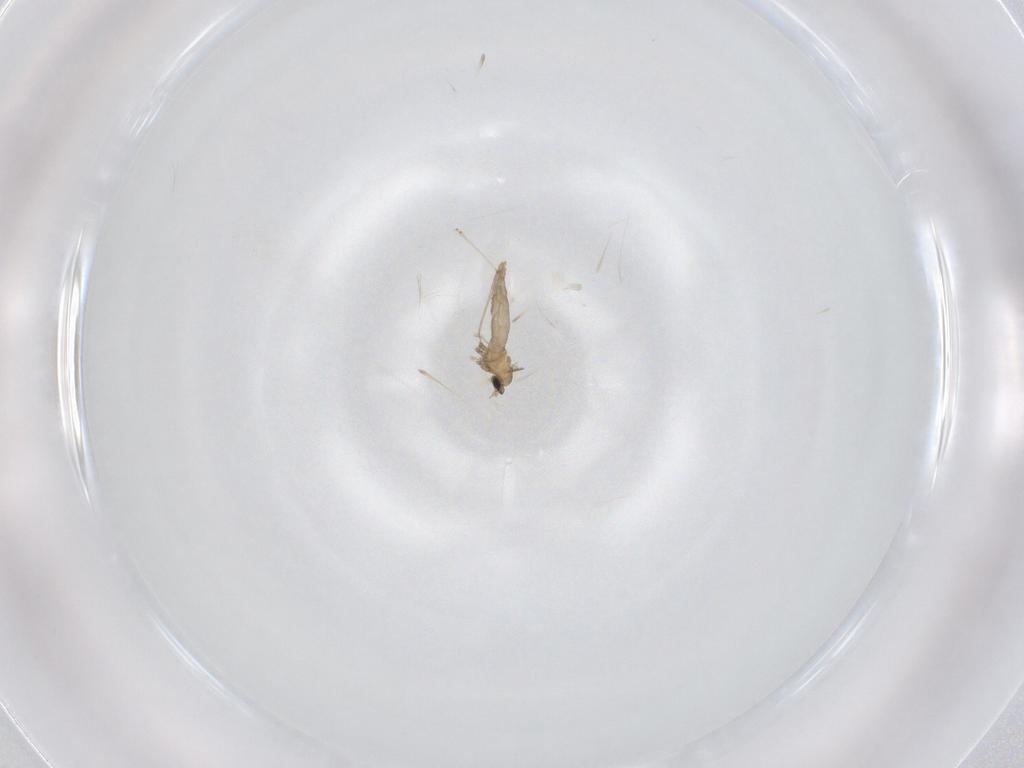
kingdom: Animalia
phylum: Arthropoda
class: Insecta
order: Diptera
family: Cecidomyiidae
